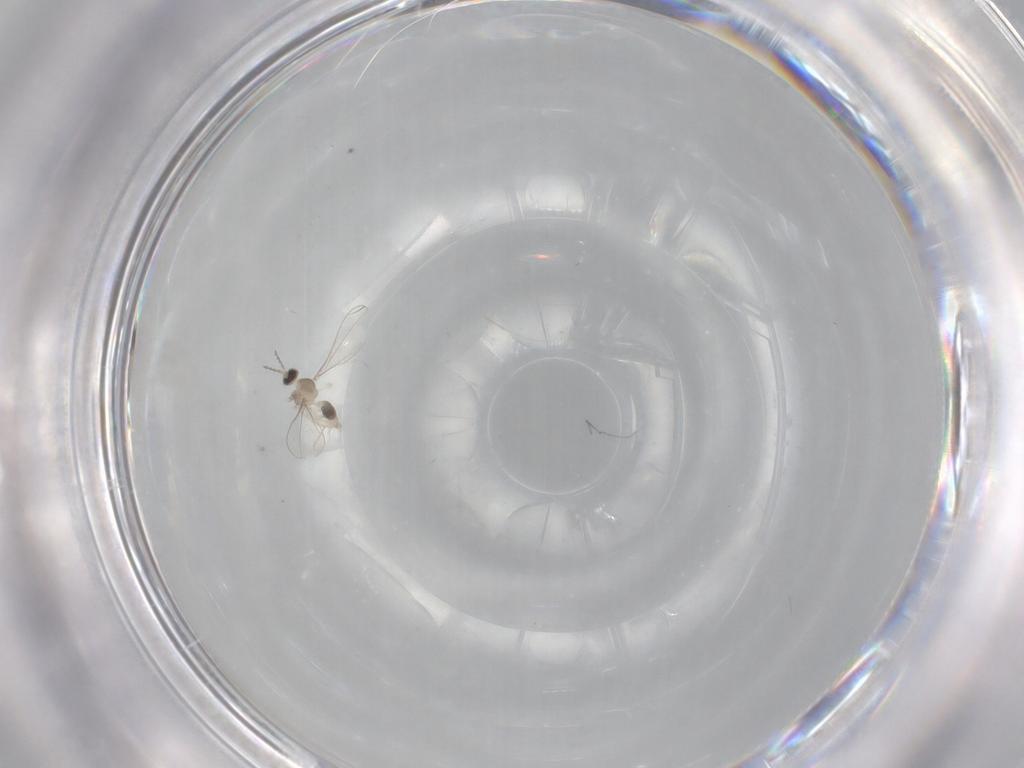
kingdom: Animalia
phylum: Arthropoda
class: Insecta
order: Diptera
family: Cecidomyiidae
